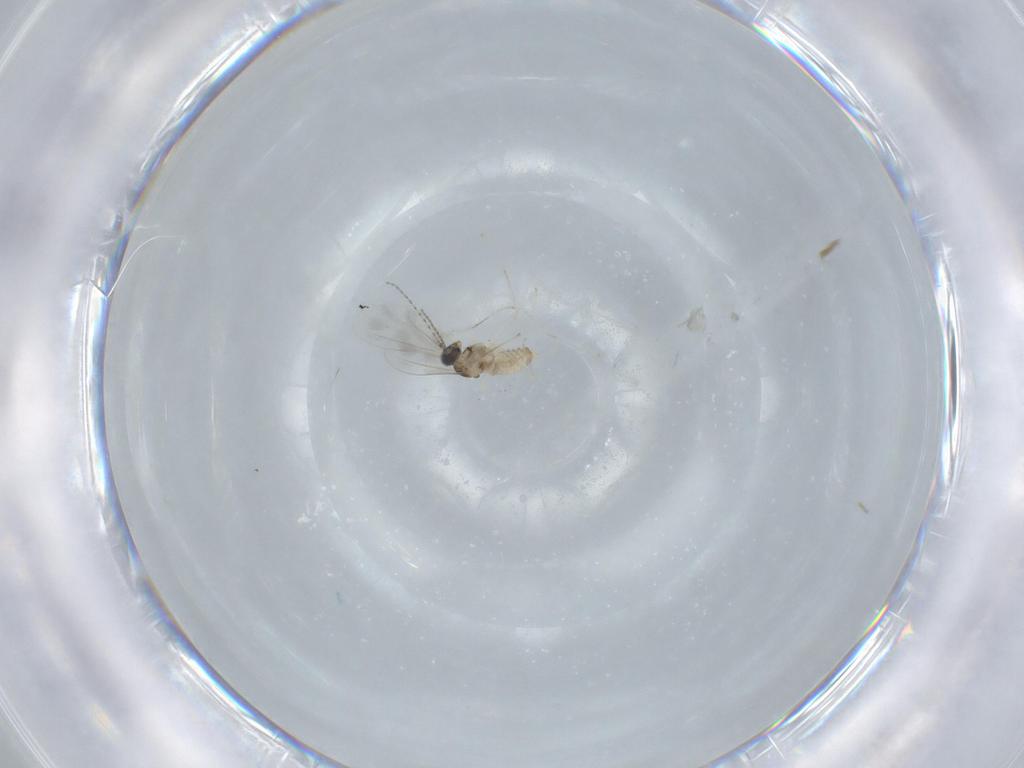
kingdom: Animalia
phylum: Arthropoda
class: Insecta
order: Diptera
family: Cecidomyiidae
